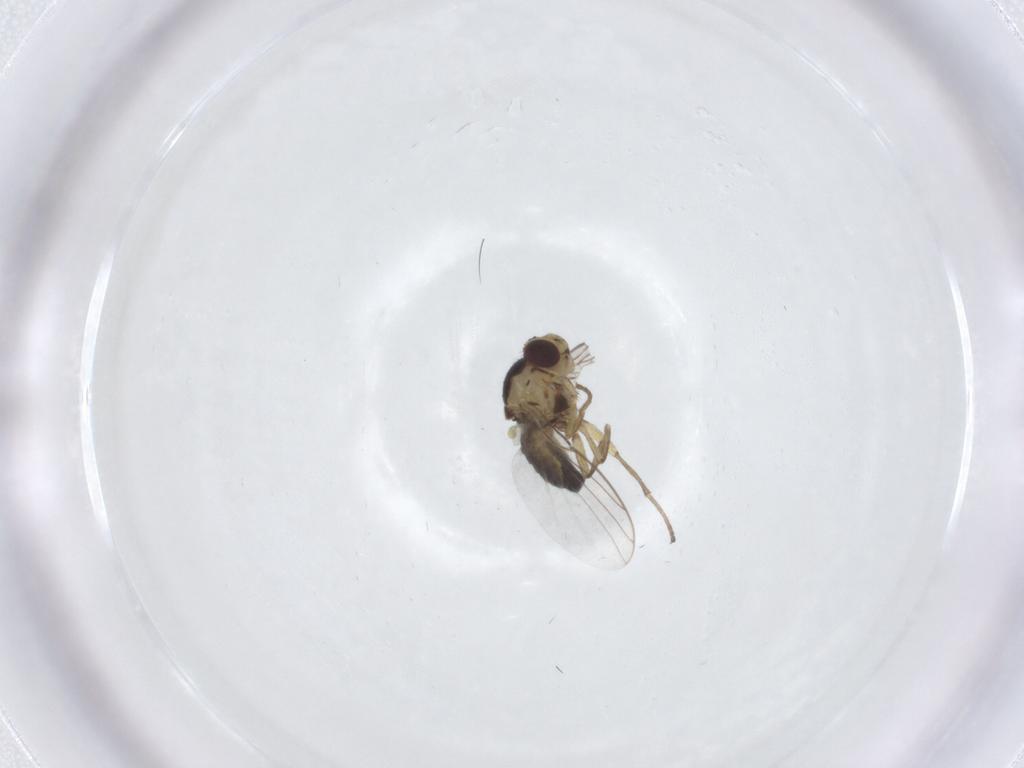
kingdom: Animalia
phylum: Arthropoda
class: Insecta
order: Diptera
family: Agromyzidae
